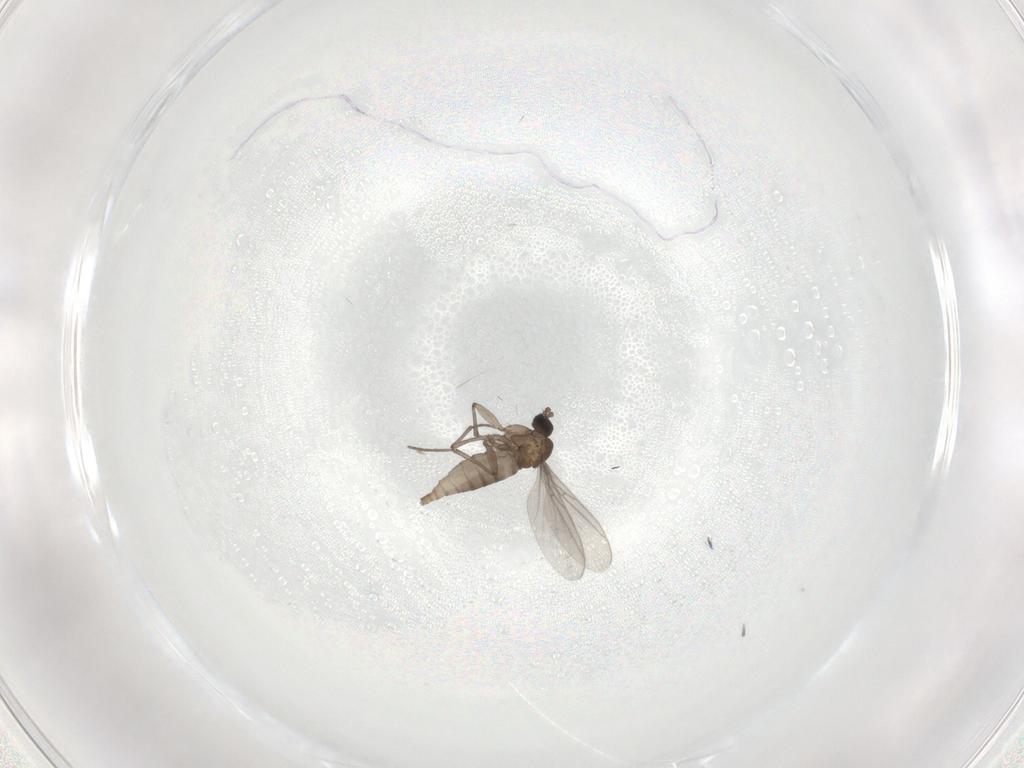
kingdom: Animalia
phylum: Arthropoda
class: Insecta
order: Diptera
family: Sciaridae
